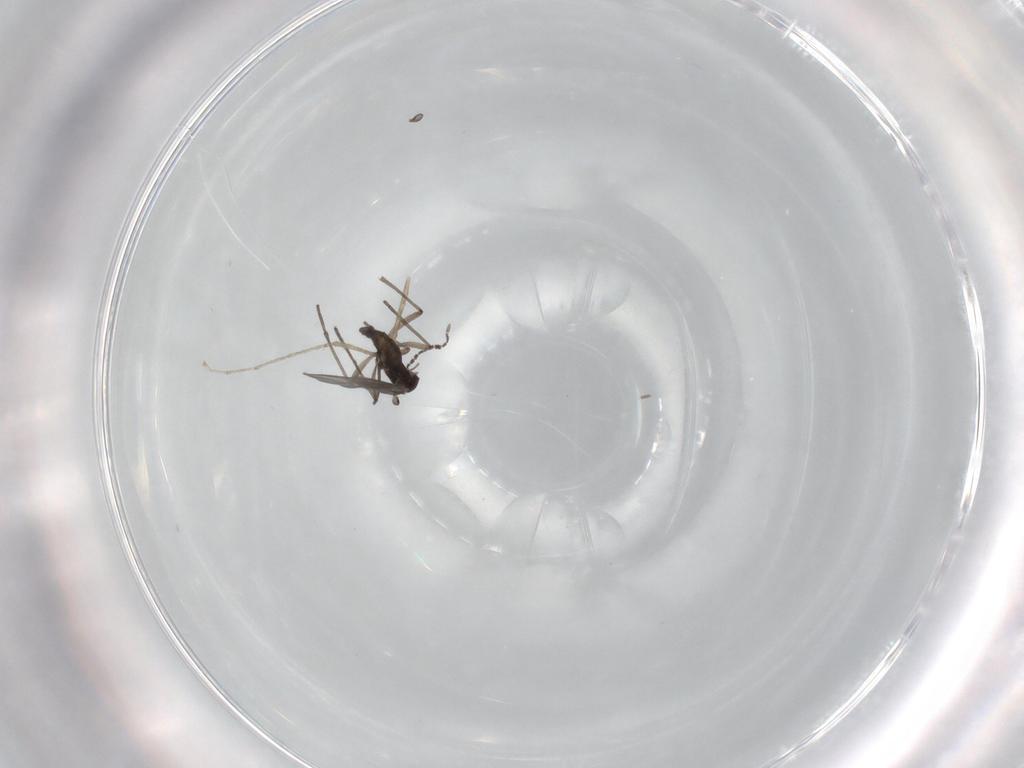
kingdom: Animalia
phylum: Arthropoda
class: Insecta
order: Diptera
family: Sciaridae
